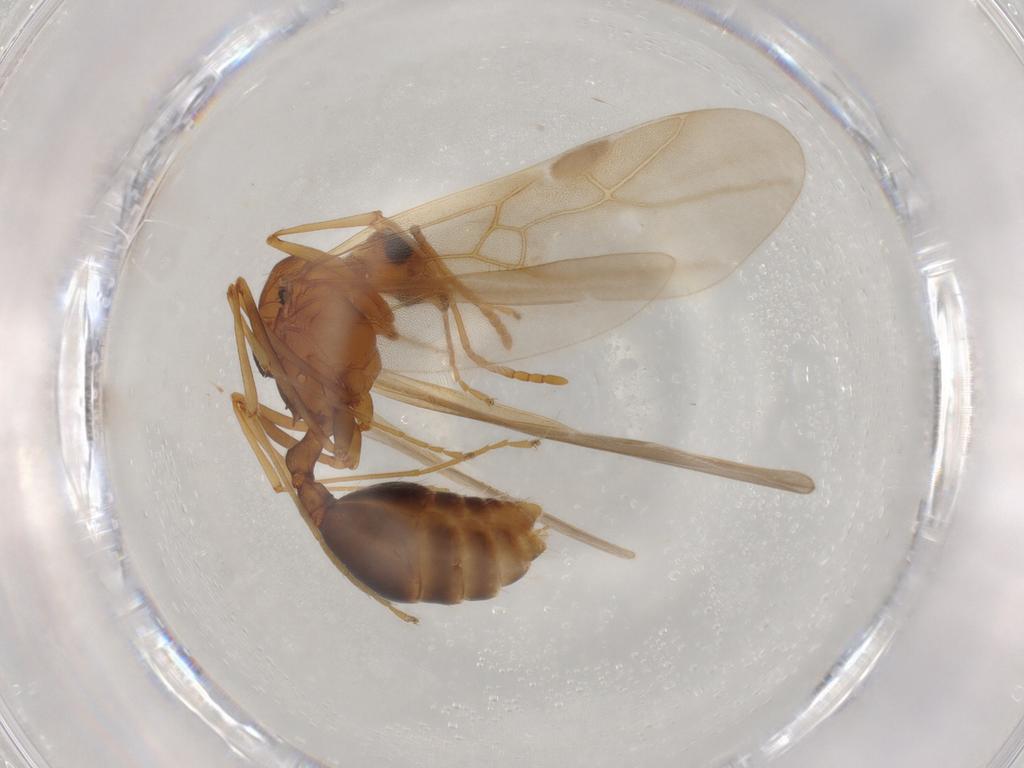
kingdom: Animalia
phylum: Arthropoda
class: Insecta
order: Hymenoptera
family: Formicidae
